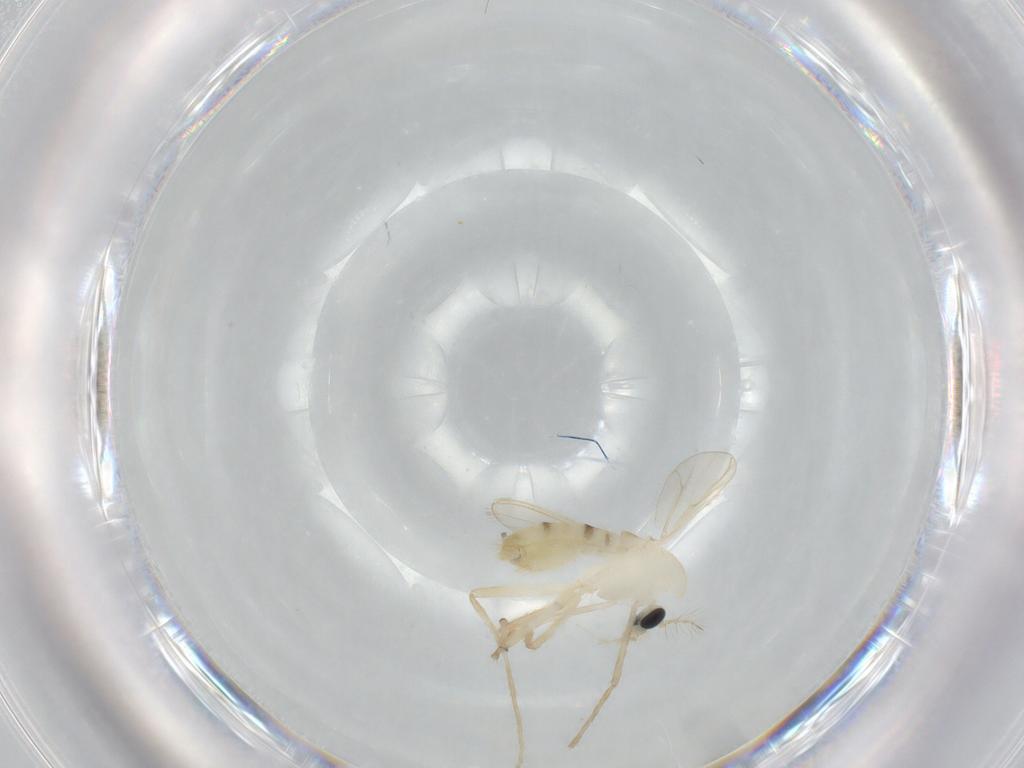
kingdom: Animalia
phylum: Arthropoda
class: Insecta
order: Diptera
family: Chironomidae
